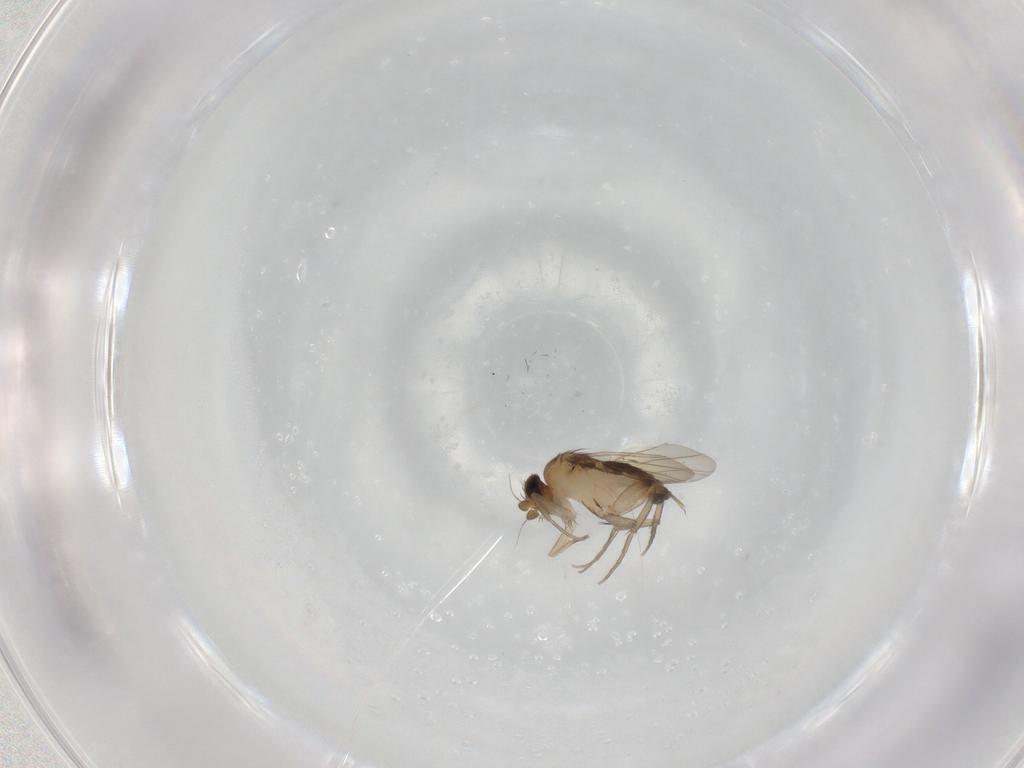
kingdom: Animalia
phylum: Arthropoda
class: Insecta
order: Diptera
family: Phoridae
